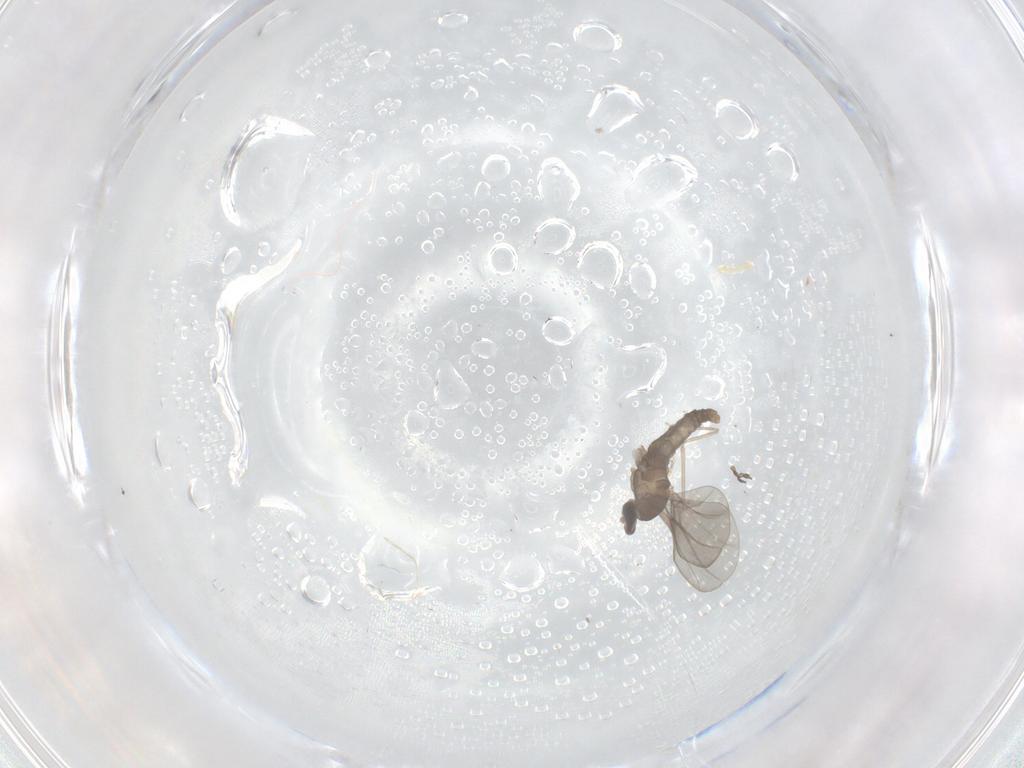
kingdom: Animalia
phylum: Arthropoda
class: Insecta
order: Diptera
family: Cecidomyiidae
